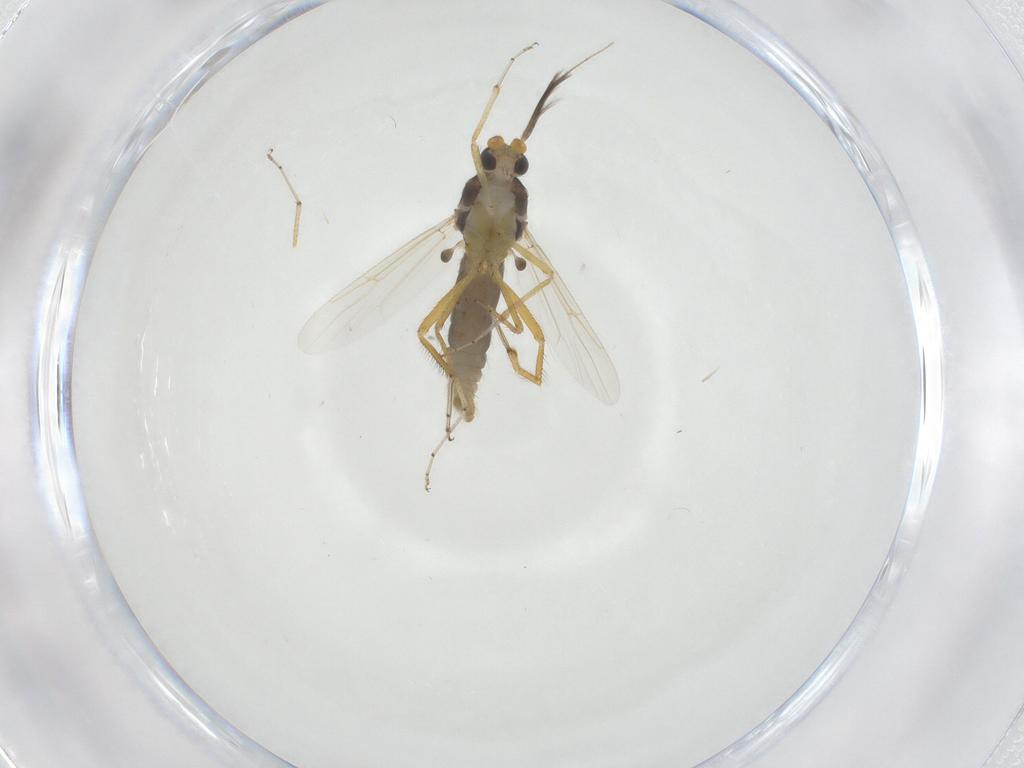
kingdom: Animalia
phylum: Arthropoda
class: Insecta
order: Diptera
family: Ceratopogonidae
